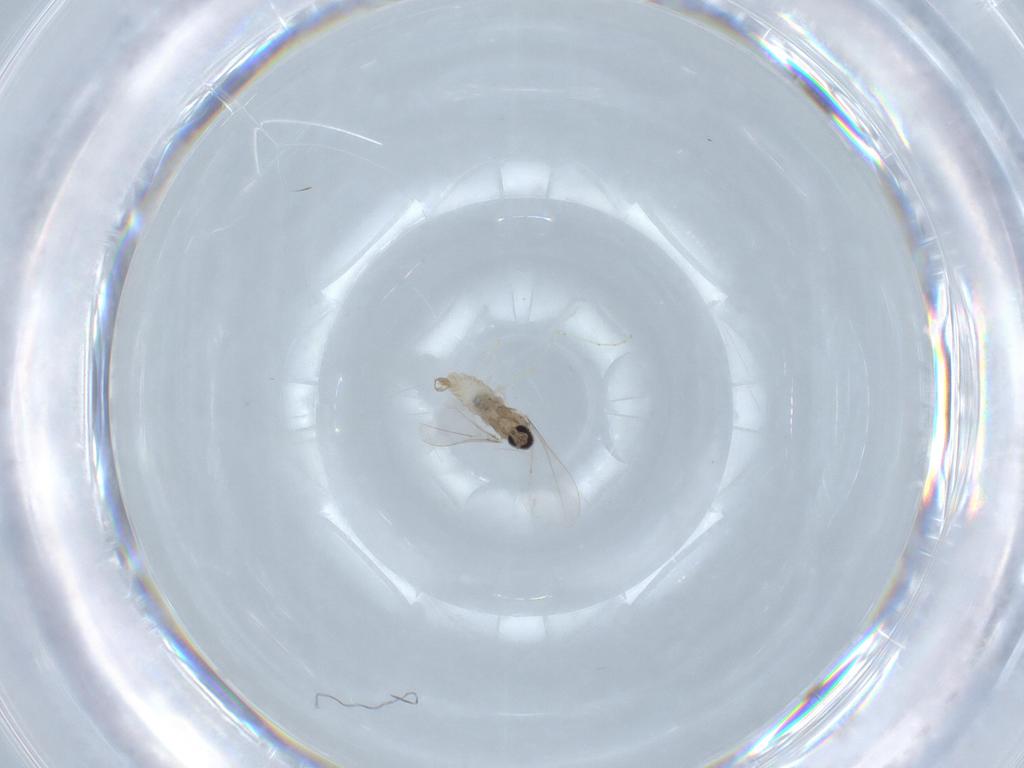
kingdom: Animalia
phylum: Arthropoda
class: Insecta
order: Diptera
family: Cecidomyiidae
